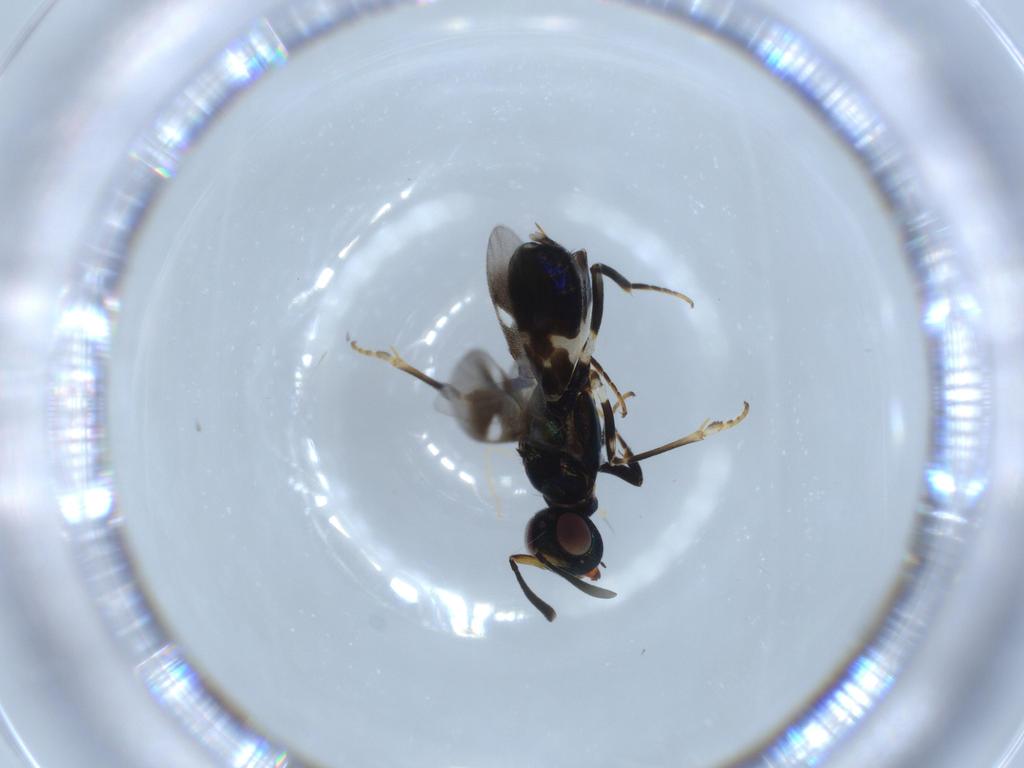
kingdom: Animalia
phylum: Arthropoda
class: Insecta
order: Hymenoptera
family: Eupelmidae
